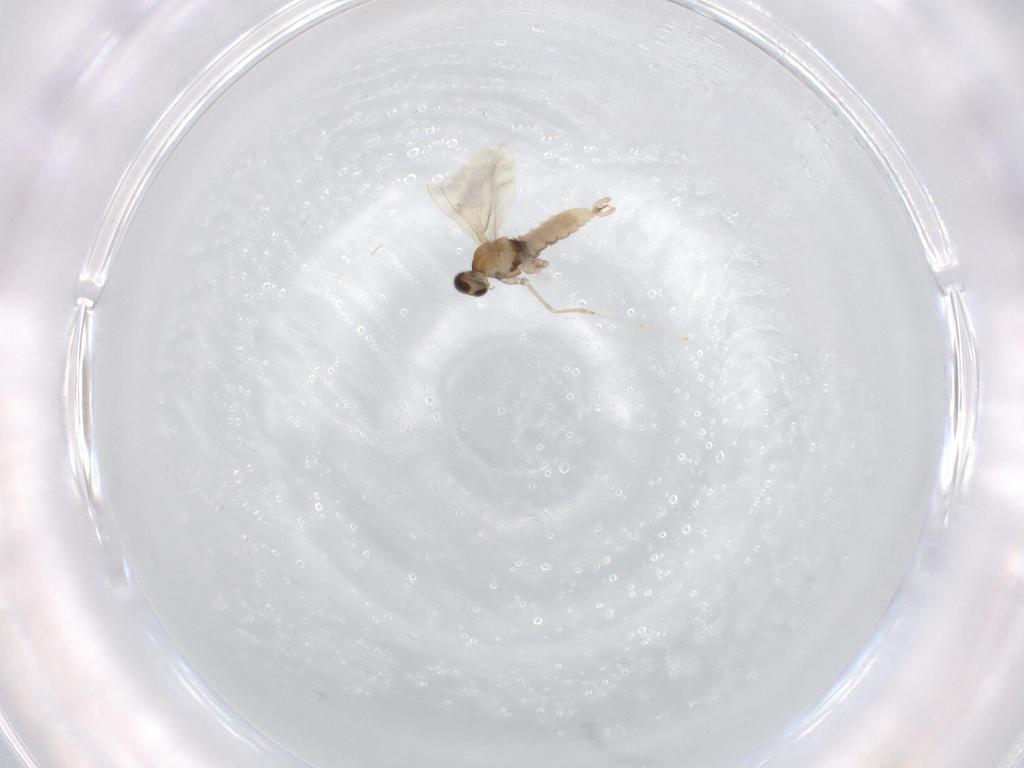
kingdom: Animalia
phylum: Arthropoda
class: Insecta
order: Diptera
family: Cecidomyiidae
